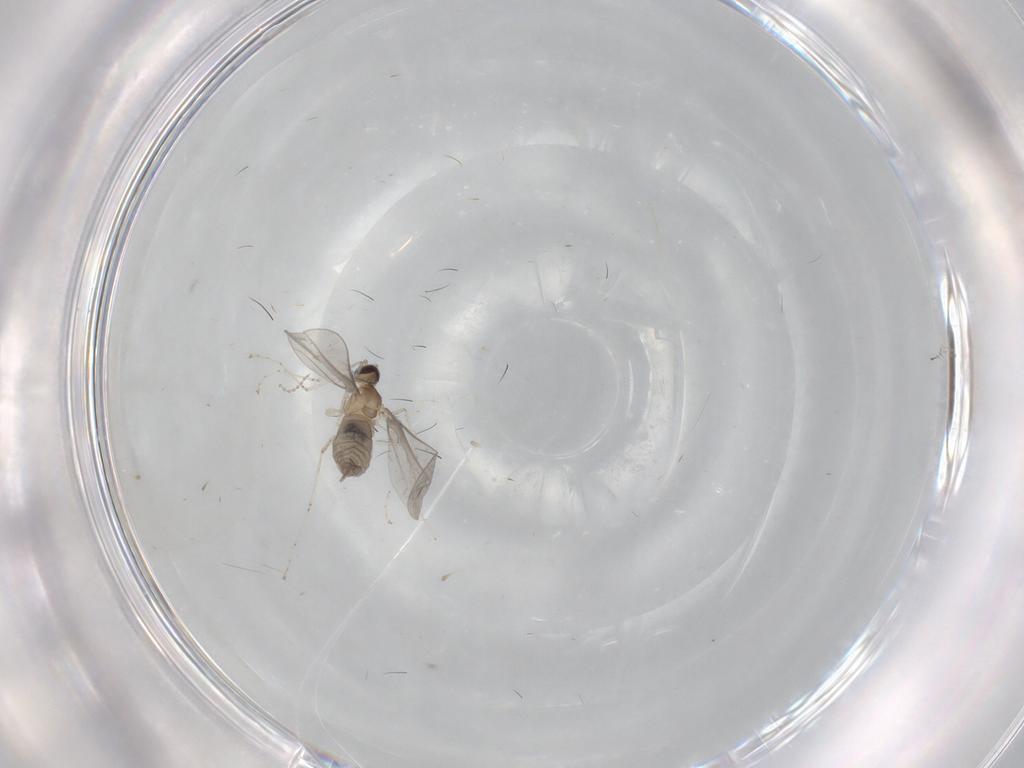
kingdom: Animalia
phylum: Arthropoda
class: Insecta
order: Diptera
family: Cecidomyiidae
